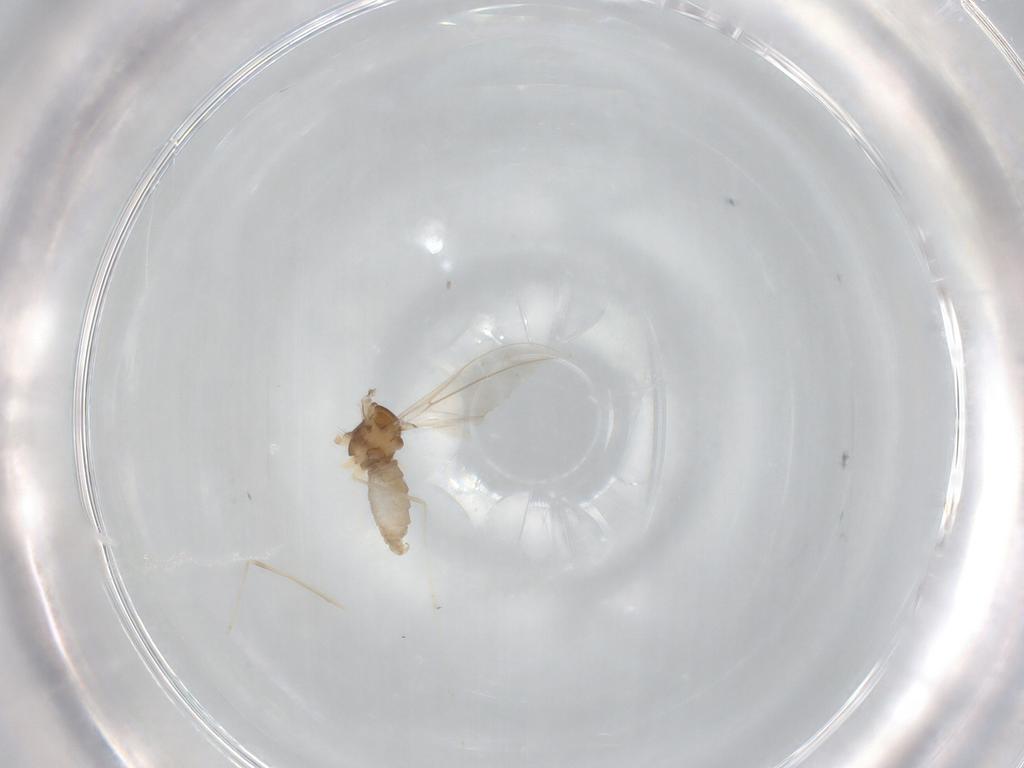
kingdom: Animalia
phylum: Arthropoda
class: Insecta
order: Diptera
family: Cecidomyiidae
